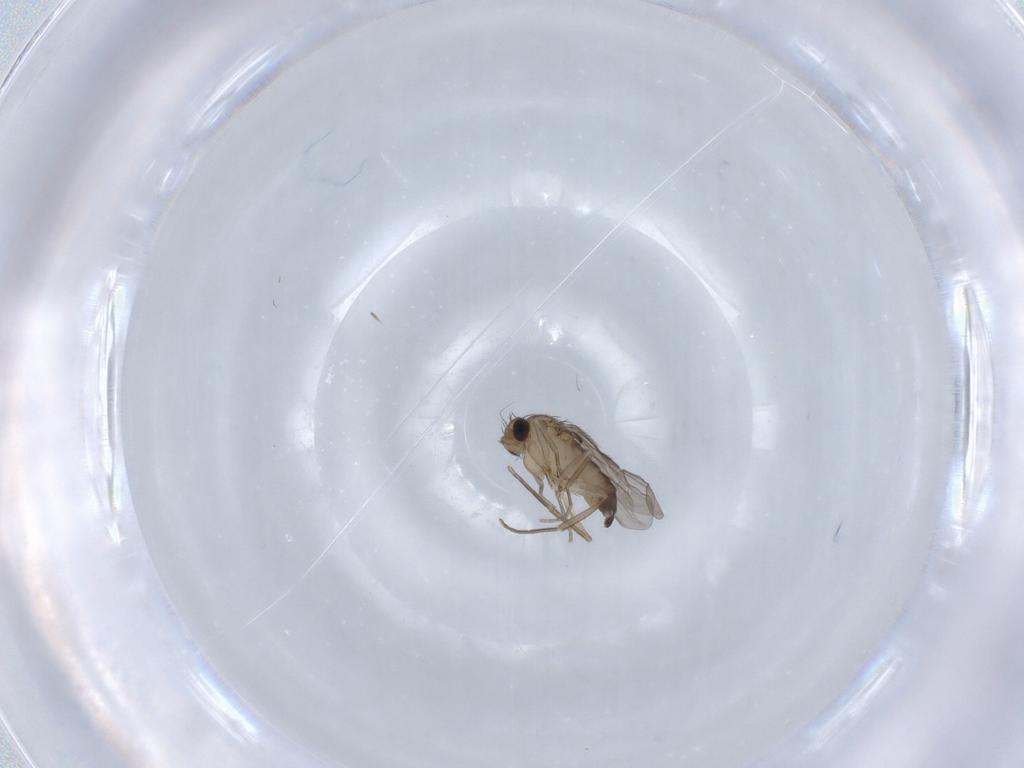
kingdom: Animalia
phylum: Arthropoda
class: Insecta
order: Diptera
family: Phoridae
